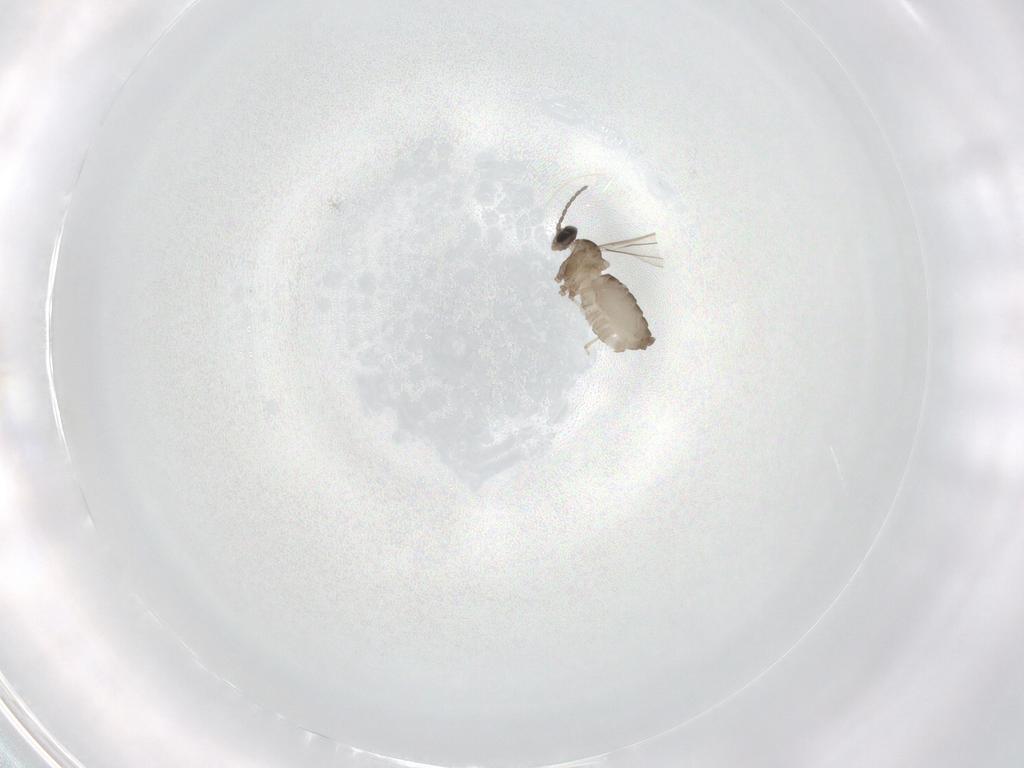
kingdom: Animalia
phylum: Arthropoda
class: Insecta
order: Diptera
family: Cecidomyiidae
